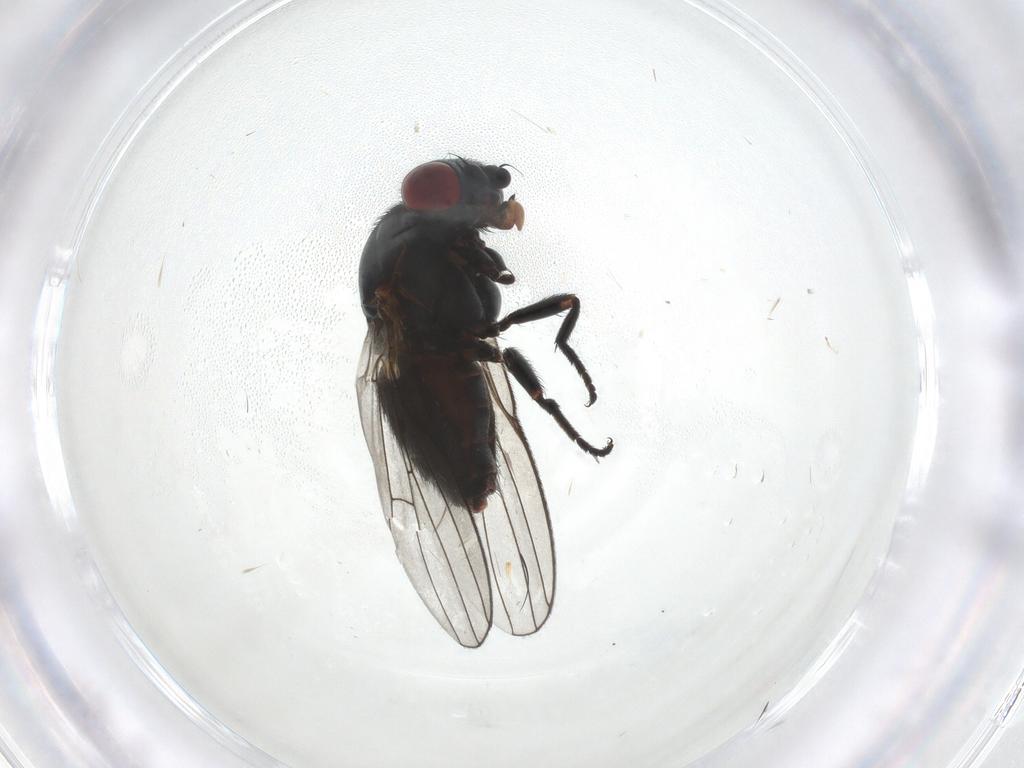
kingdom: Animalia
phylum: Arthropoda
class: Insecta
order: Diptera
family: Chamaemyiidae
